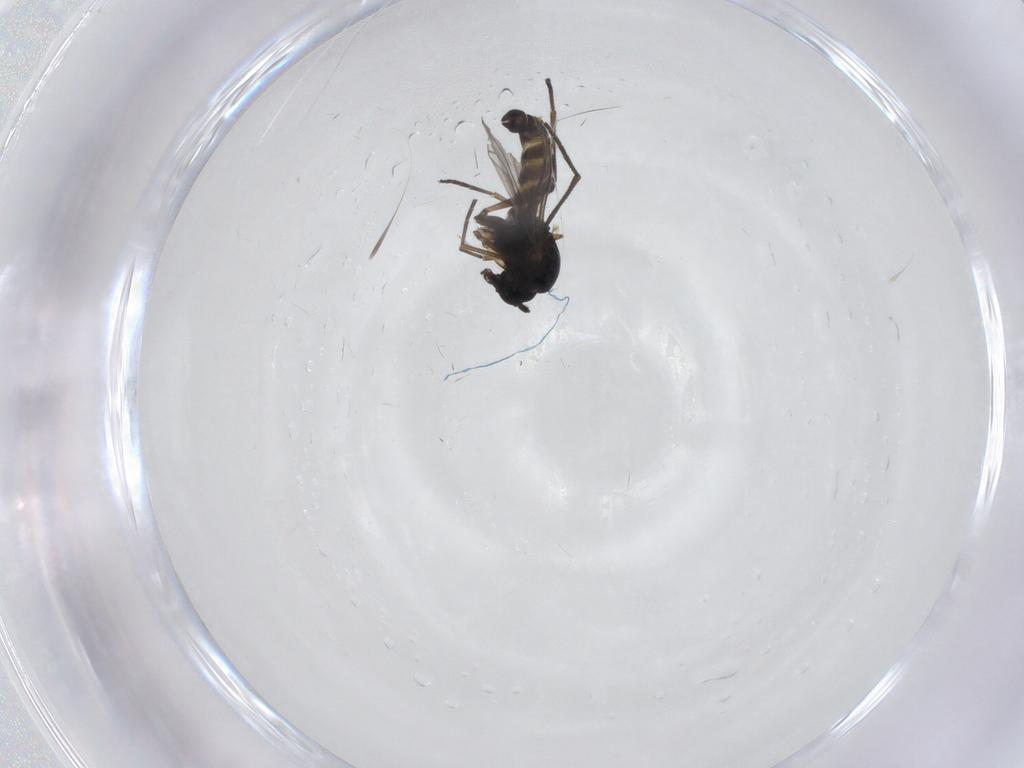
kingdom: Animalia
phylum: Arthropoda
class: Insecta
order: Diptera
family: Sciaridae
